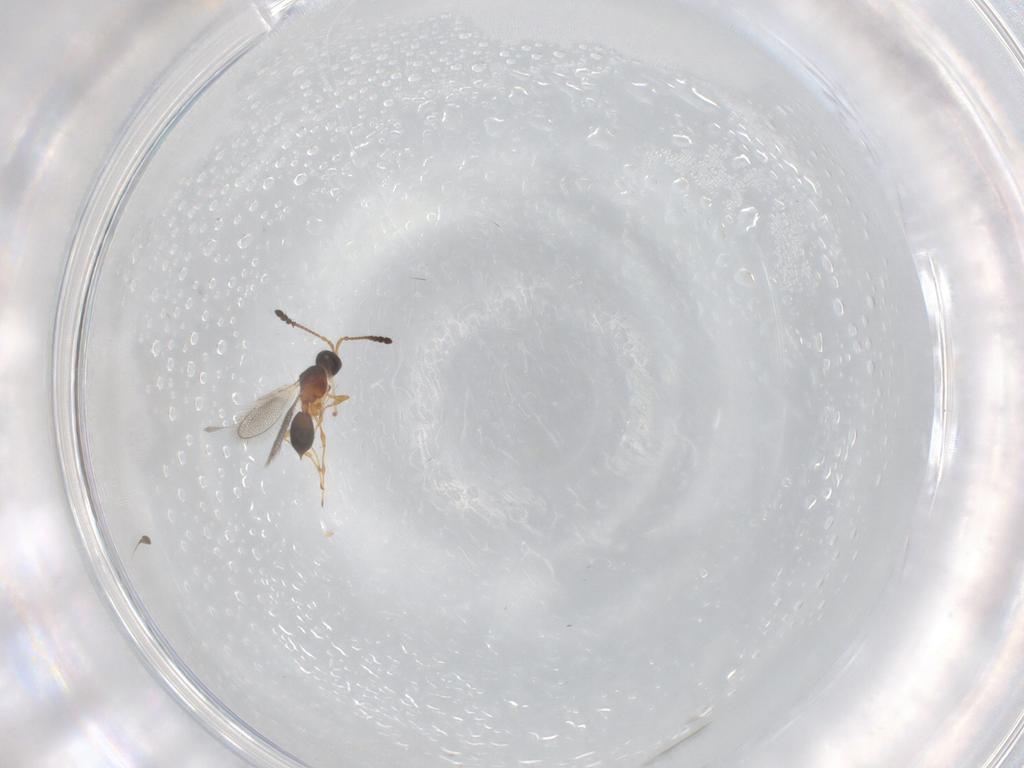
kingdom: Animalia
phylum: Arthropoda
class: Insecta
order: Hymenoptera
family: Diapriidae
